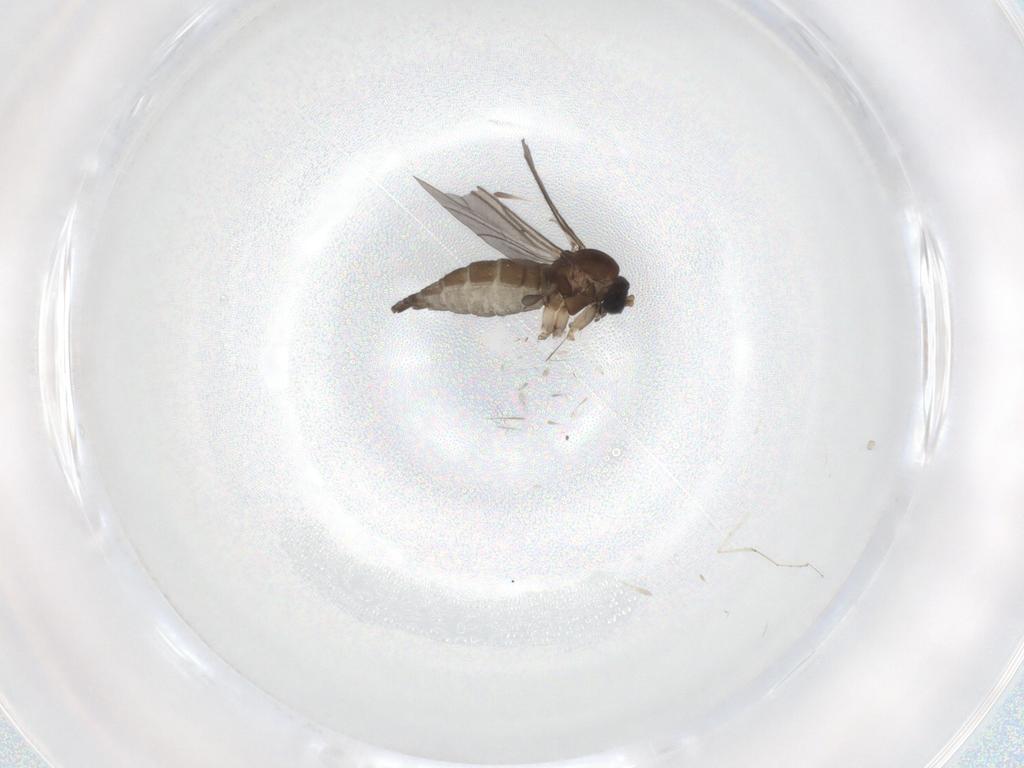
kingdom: Animalia
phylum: Arthropoda
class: Insecta
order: Diptera
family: Sciaridae
